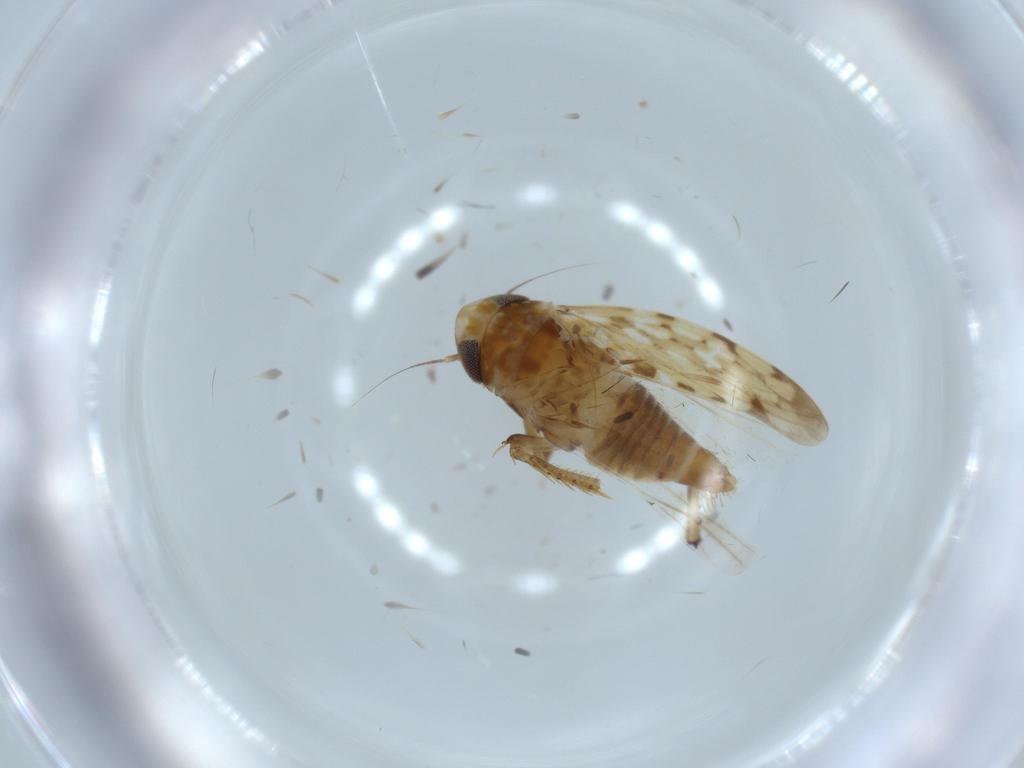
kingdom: Animalia
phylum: Arthropoda
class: Insecta
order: Hemiptera
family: Cicadellidae
